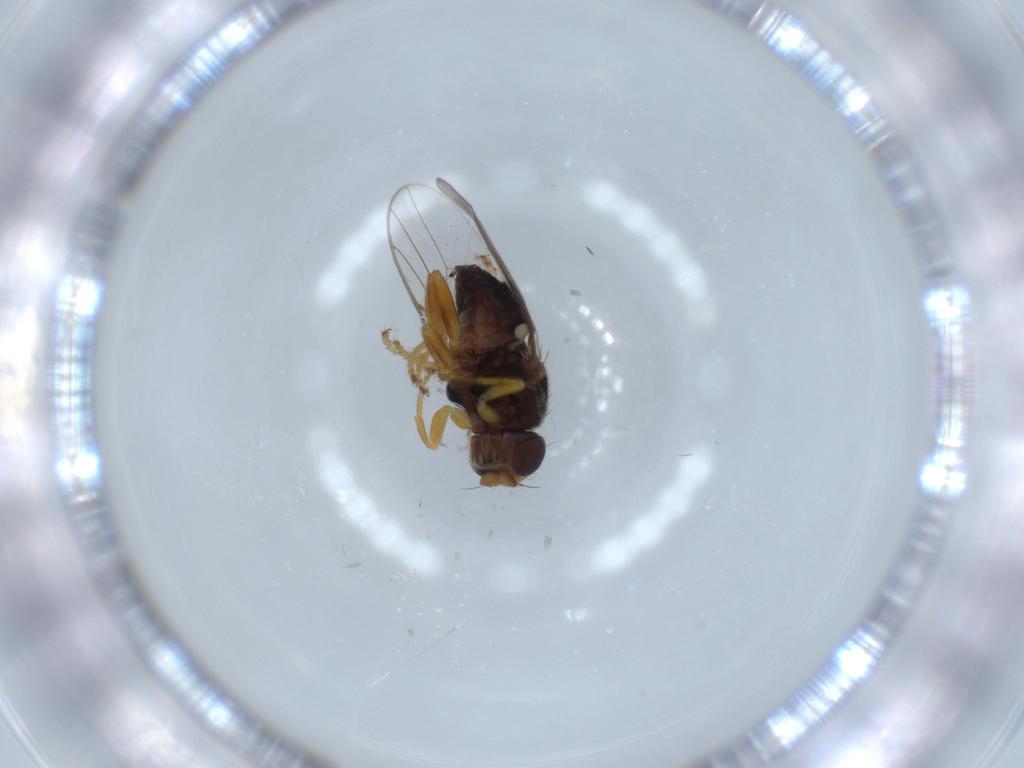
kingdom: Animalia
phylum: Arthropoda
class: Insecta
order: Diptera
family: Chloropidae
